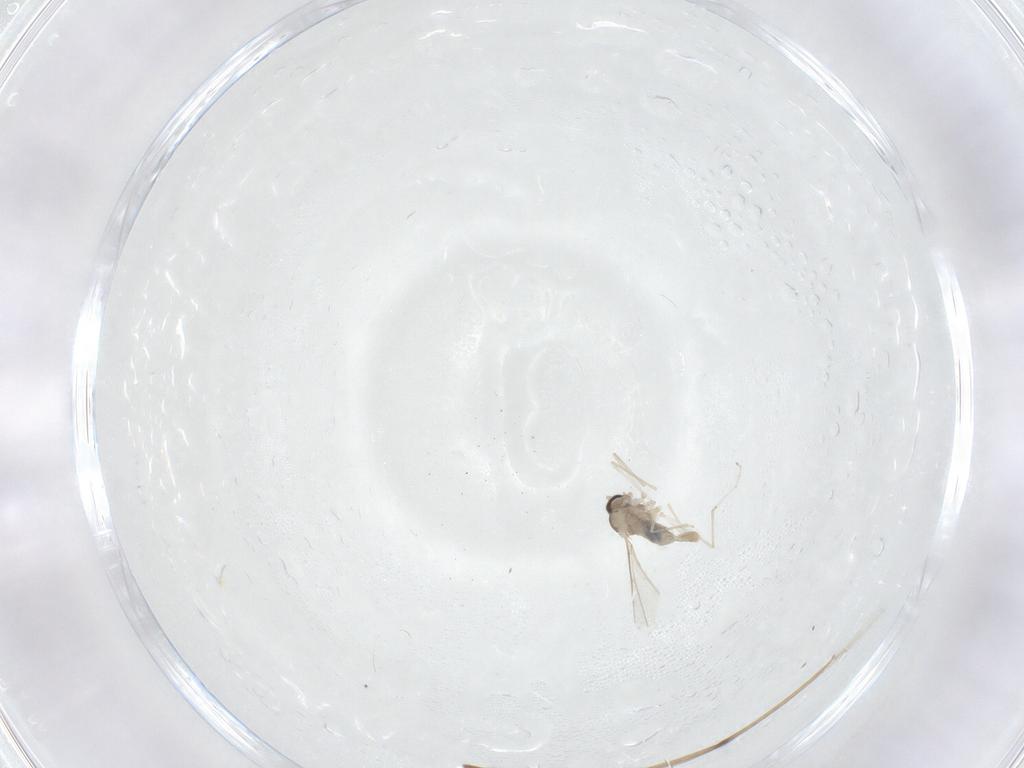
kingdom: Animalia
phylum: Arthropoda
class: Insecta
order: Diptera
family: Cecidomyiidae
